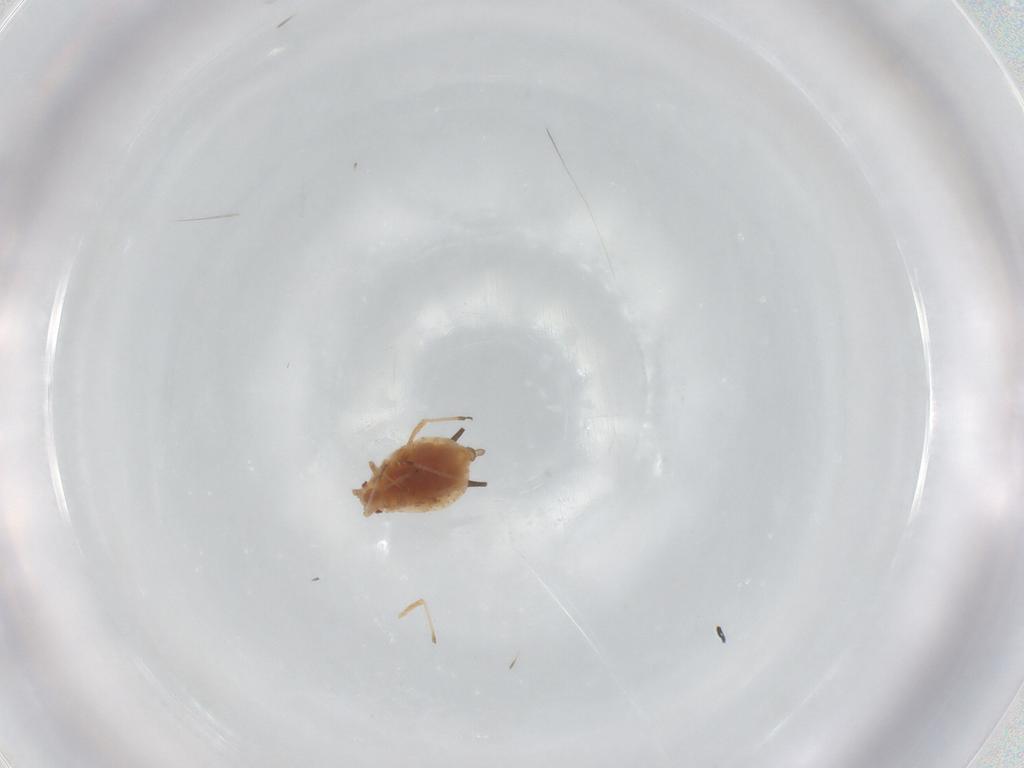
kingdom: Animalia
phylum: Arthropoda
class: Insecta
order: Hemiptera
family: Aphididae
